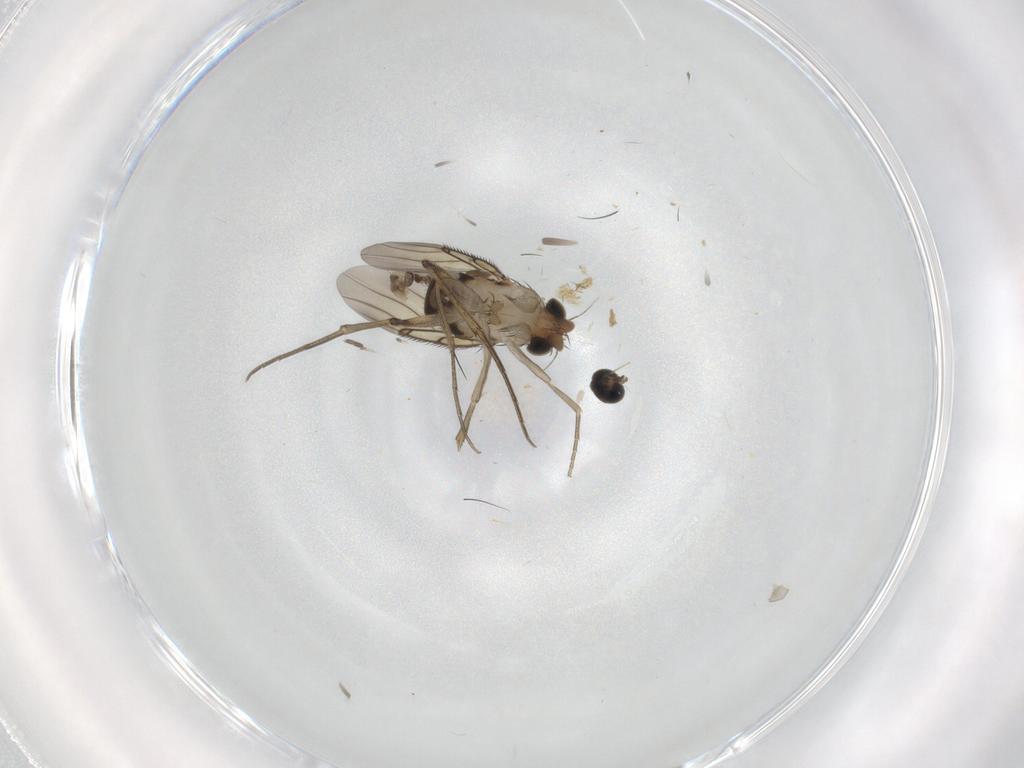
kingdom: Animalia
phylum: Arthropoda
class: Insecta
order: Diptera
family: Phoridae
